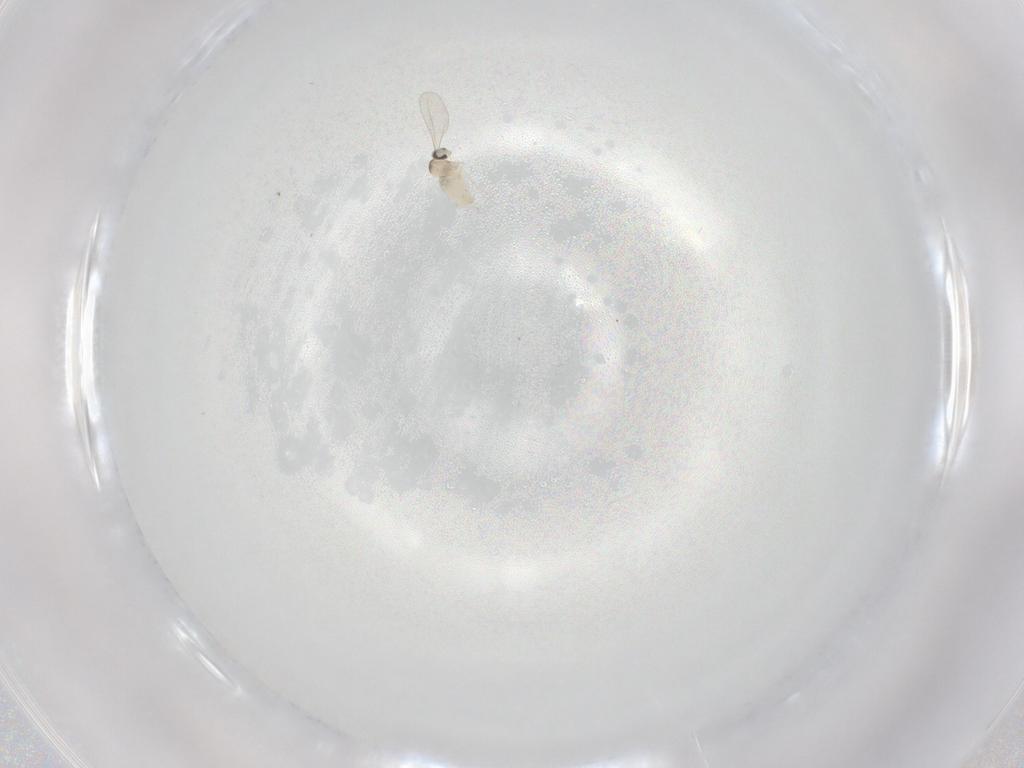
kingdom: Animalia
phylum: Arthropoda
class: Insecta
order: Diptera
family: Cecidomyiidae
